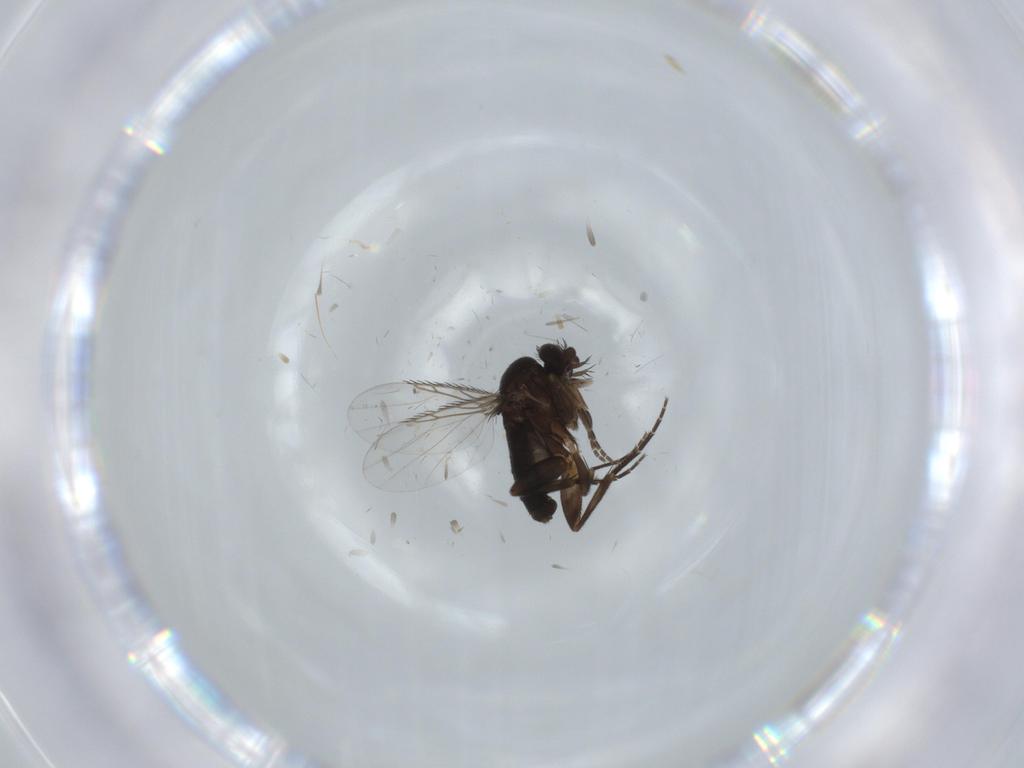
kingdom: Animalia
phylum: Arthropoda
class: Insecta
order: Diptera
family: Phoridae
